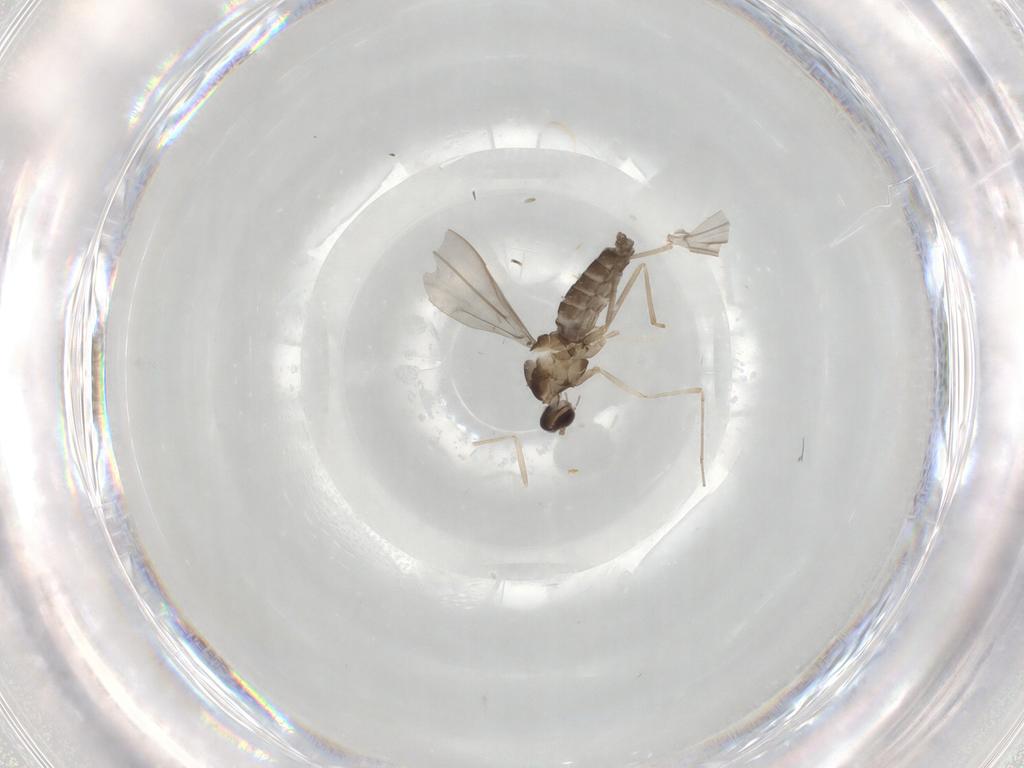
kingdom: Animalia
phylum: Arthropoda
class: Insecta
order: Diptera
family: Cecidomyiidae
